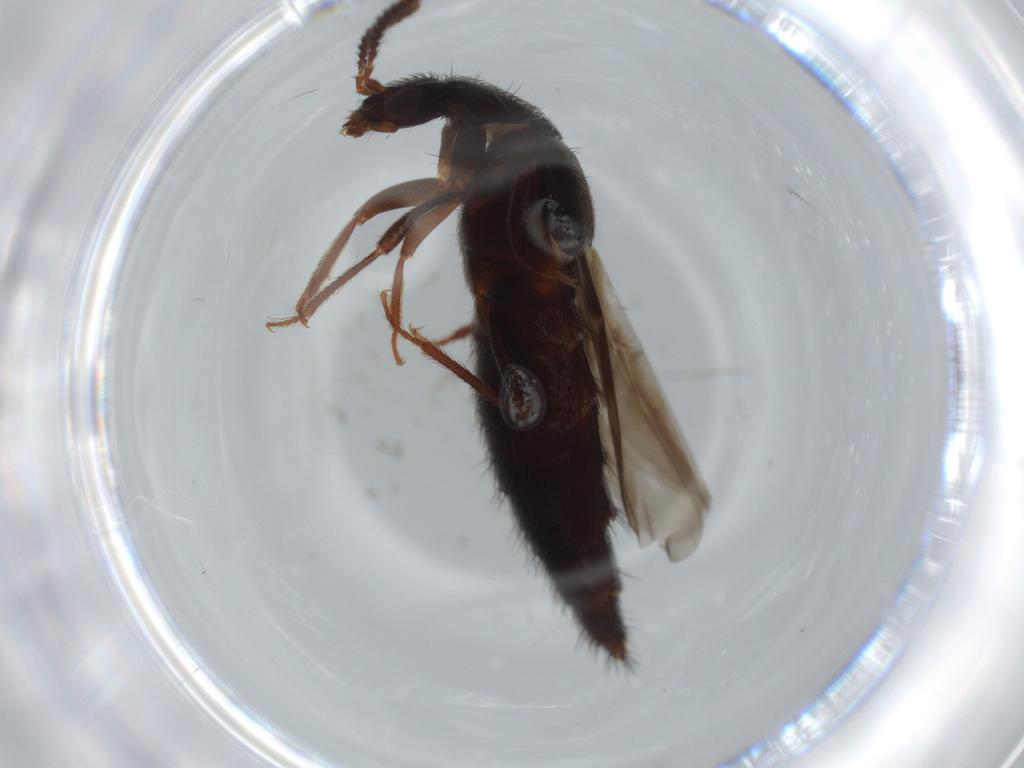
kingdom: Animalia
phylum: Arthropoda
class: Insecta
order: Coleoptera
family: Staphylinidae
